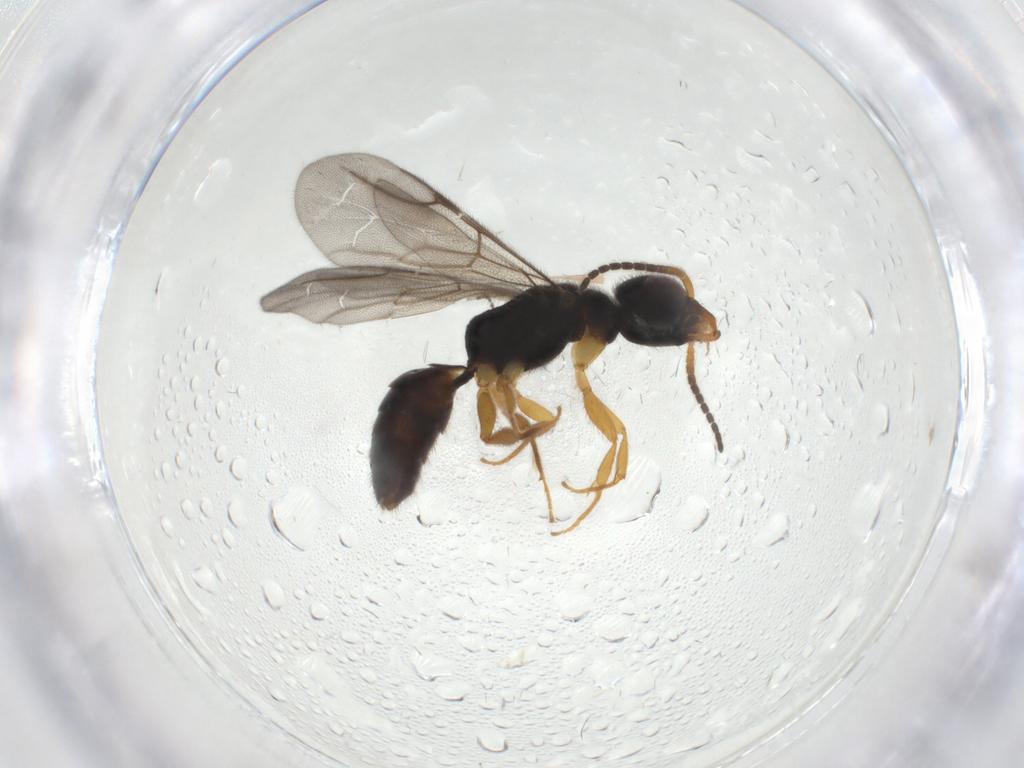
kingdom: Animalia
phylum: Arthropoda
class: Insecta
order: Hymenoptera
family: Bethylidae
